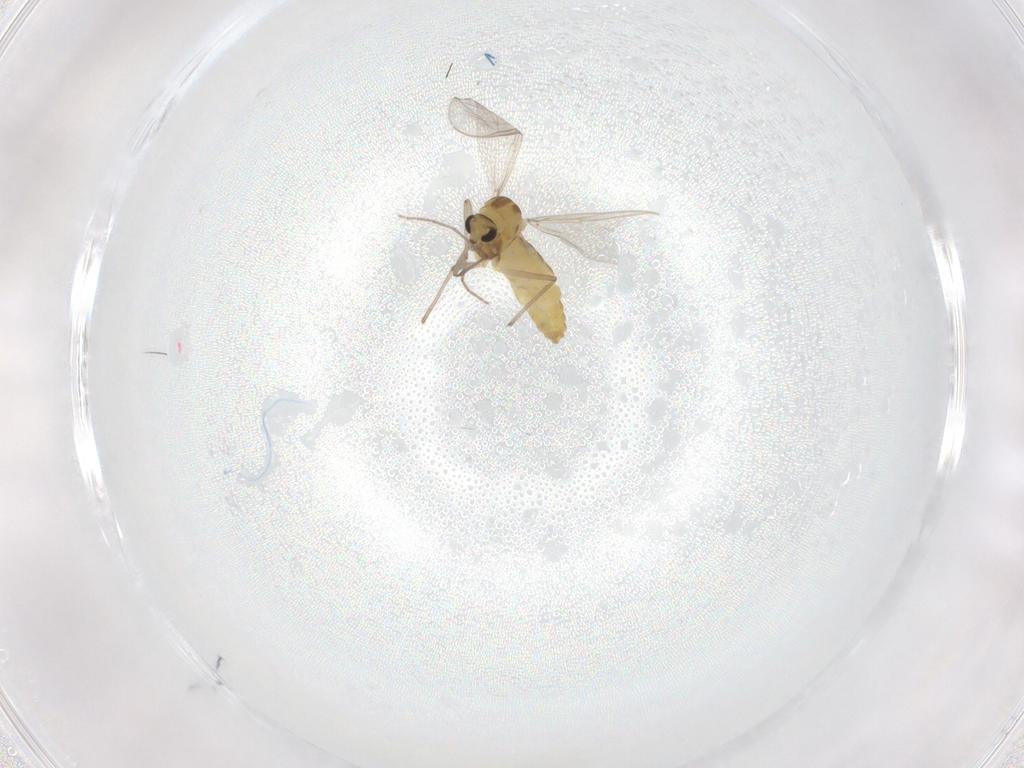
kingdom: Animalia
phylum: Arthropoda
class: Insecta
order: Diptera
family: Chironomidae
